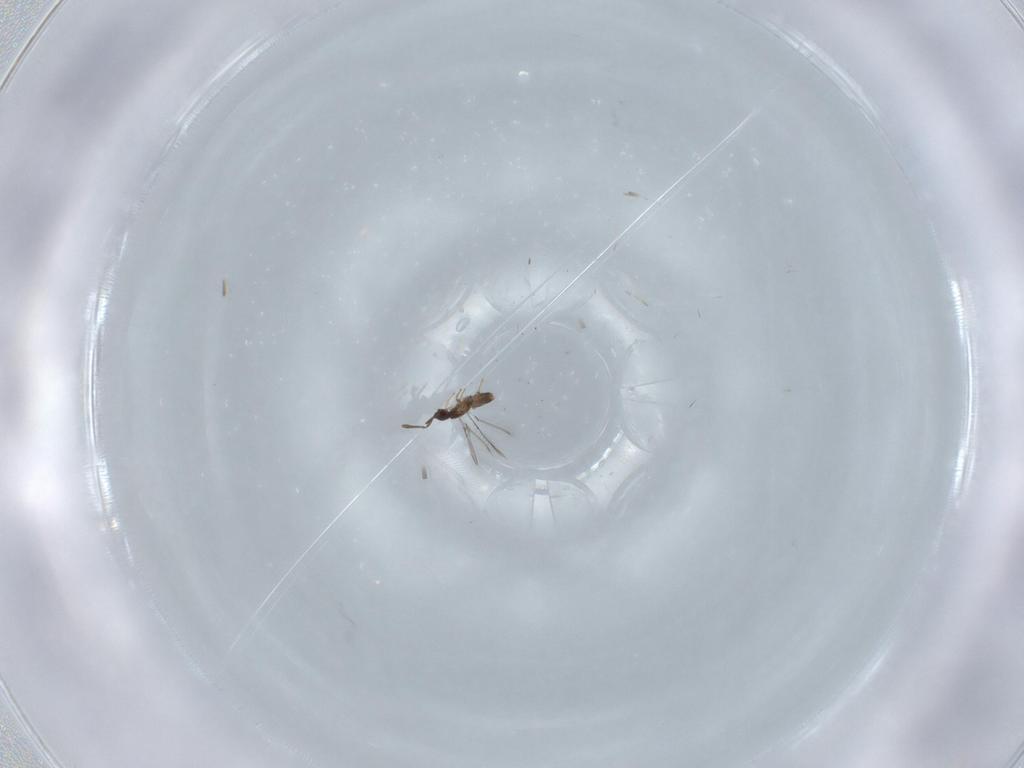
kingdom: Animalia
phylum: Arthropoda
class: Insecta
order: Hymenoptera
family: Mymaridae
